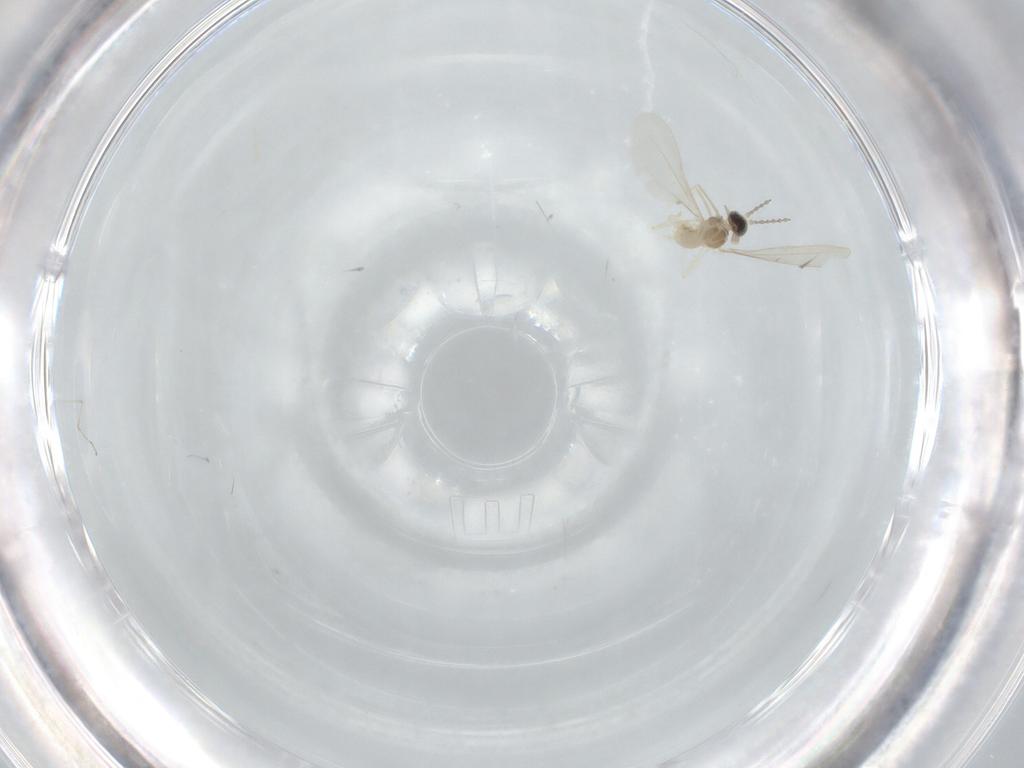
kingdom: Animalia
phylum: Arthropoda
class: Insecta
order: Diptera
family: Cecidomyiidae
